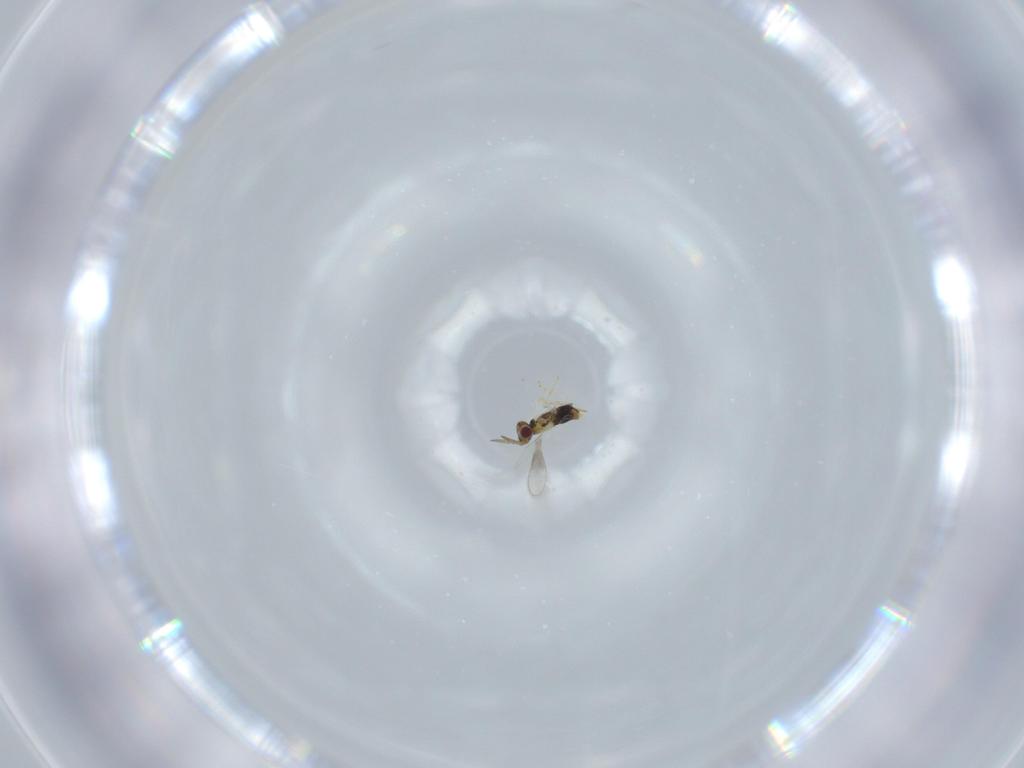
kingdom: Animalia
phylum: Arthropoda
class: Insecta
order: Hymenoptera
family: Aphelinidae
